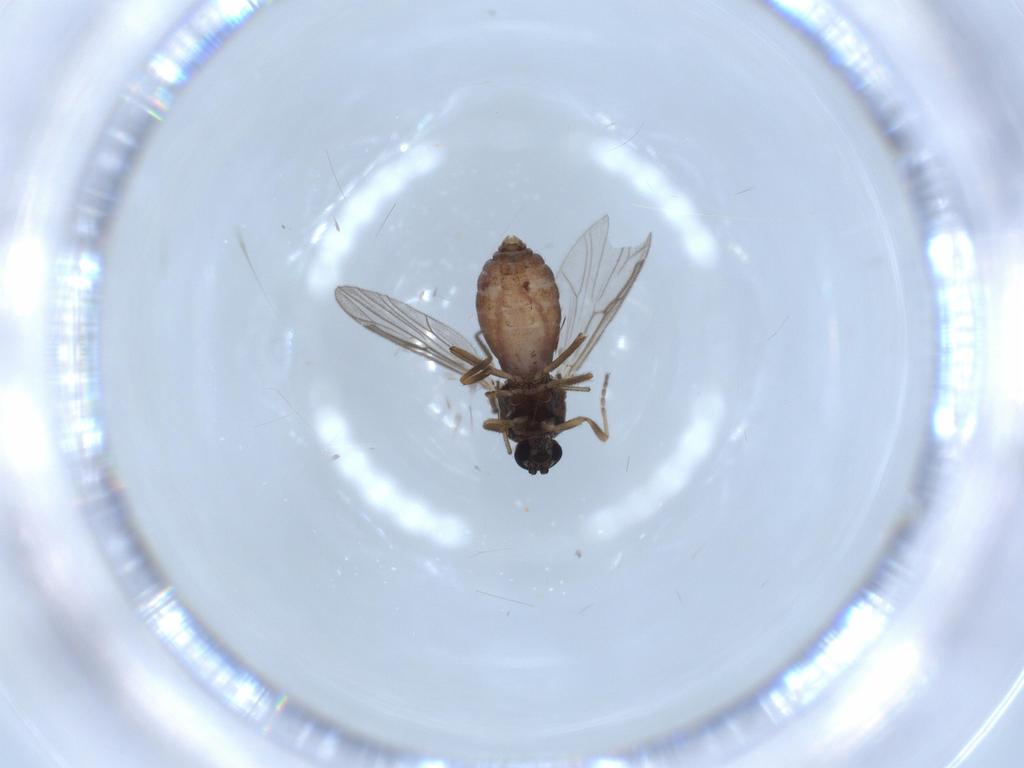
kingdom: Animalia
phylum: Arthropoda
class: Insecta
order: Diptera
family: Ceratopogonidae
